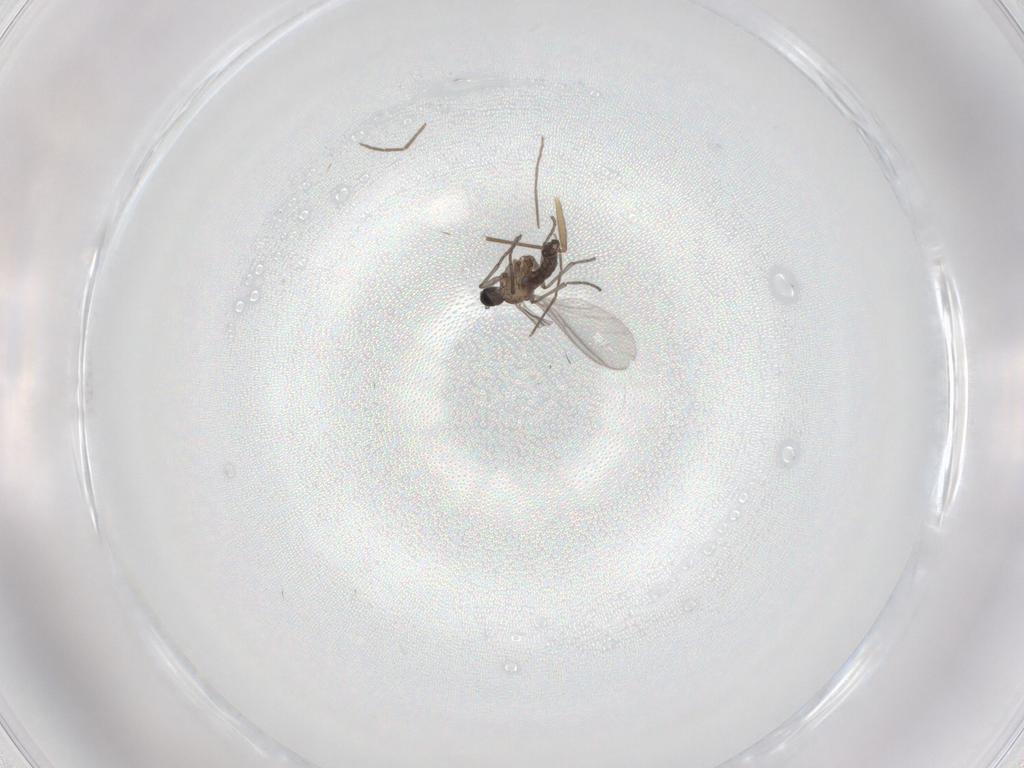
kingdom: Animalia
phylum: Arthropoda
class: Insecta
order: Diptera
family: Sciaridae
